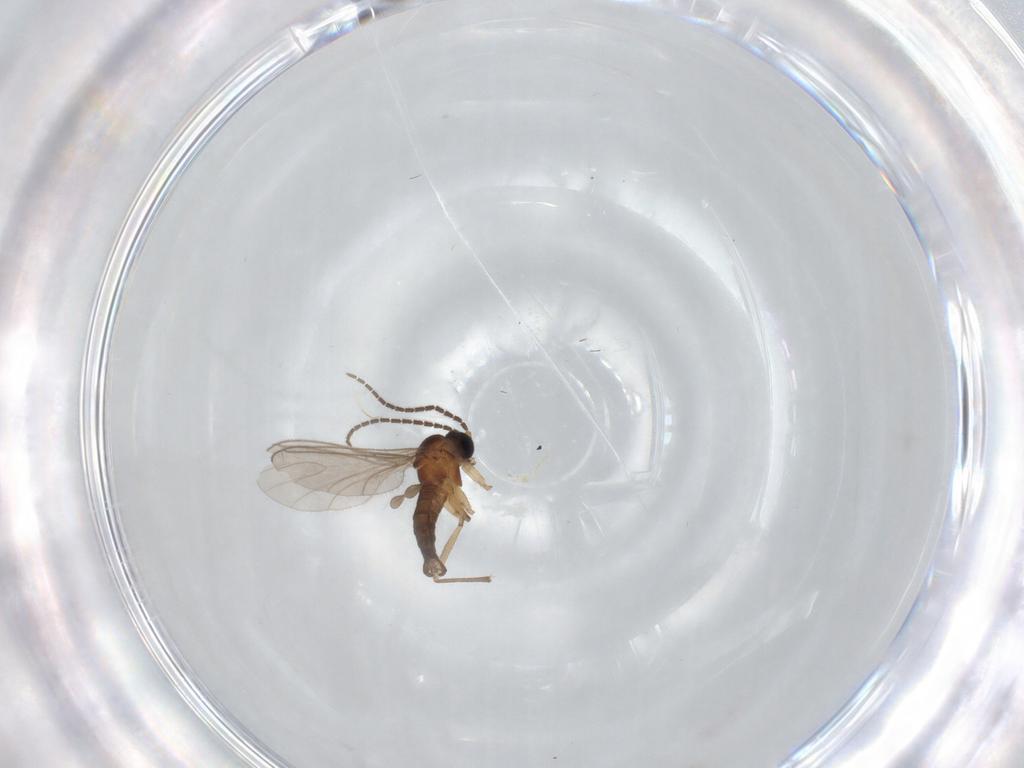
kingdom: Animalia
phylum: Arthropoda
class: Insecta
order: Diptera
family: Sciaridae
